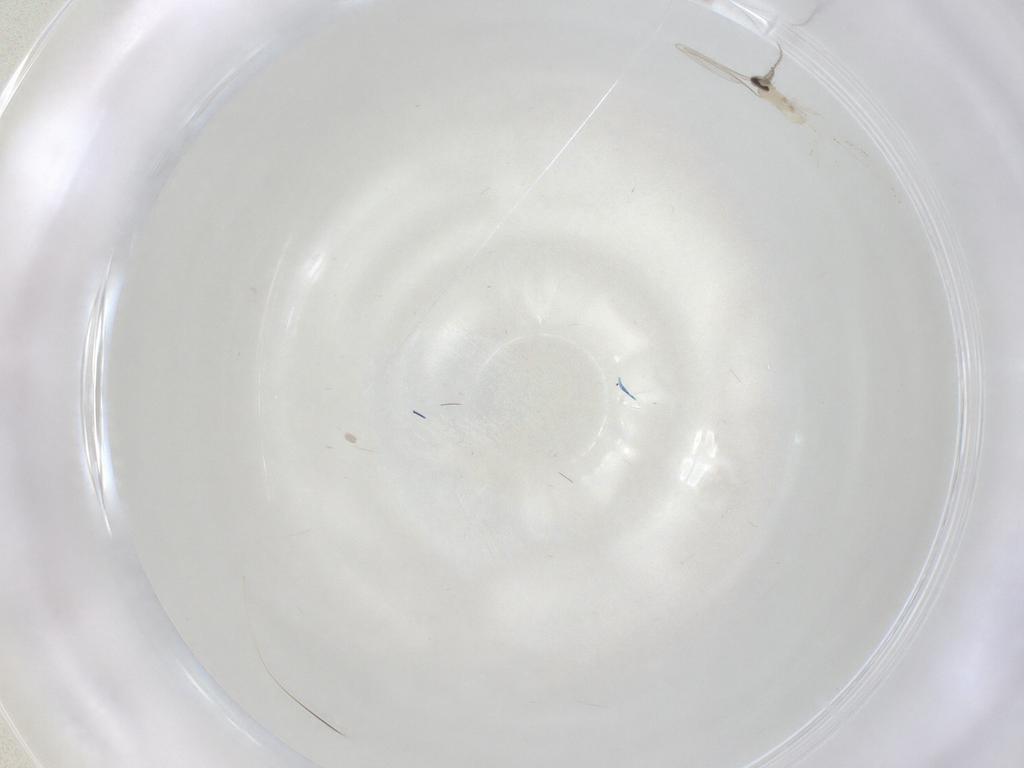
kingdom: Animalia
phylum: Arthropoda
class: Insecta
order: Diptera
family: Cecidomyiidae
